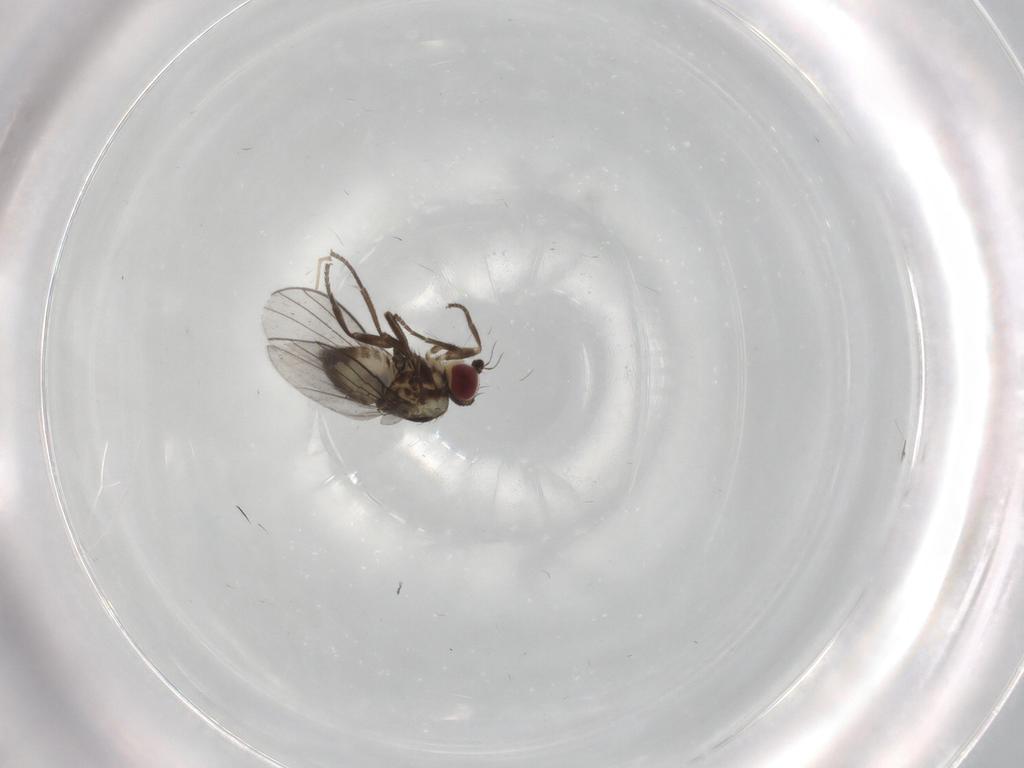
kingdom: Animalia
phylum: Arthropoda
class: Insecta
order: Diptera
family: Agromyzidae
